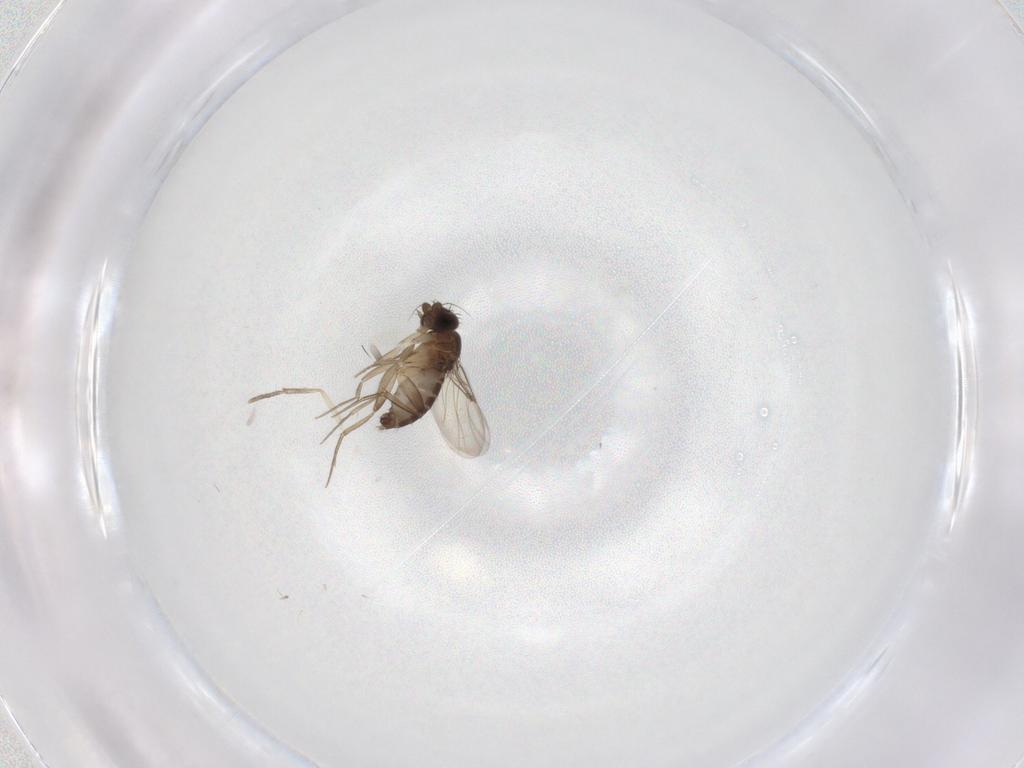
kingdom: Animalia
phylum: Arthropoda
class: Insecta
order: Diptera
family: Phoridae
